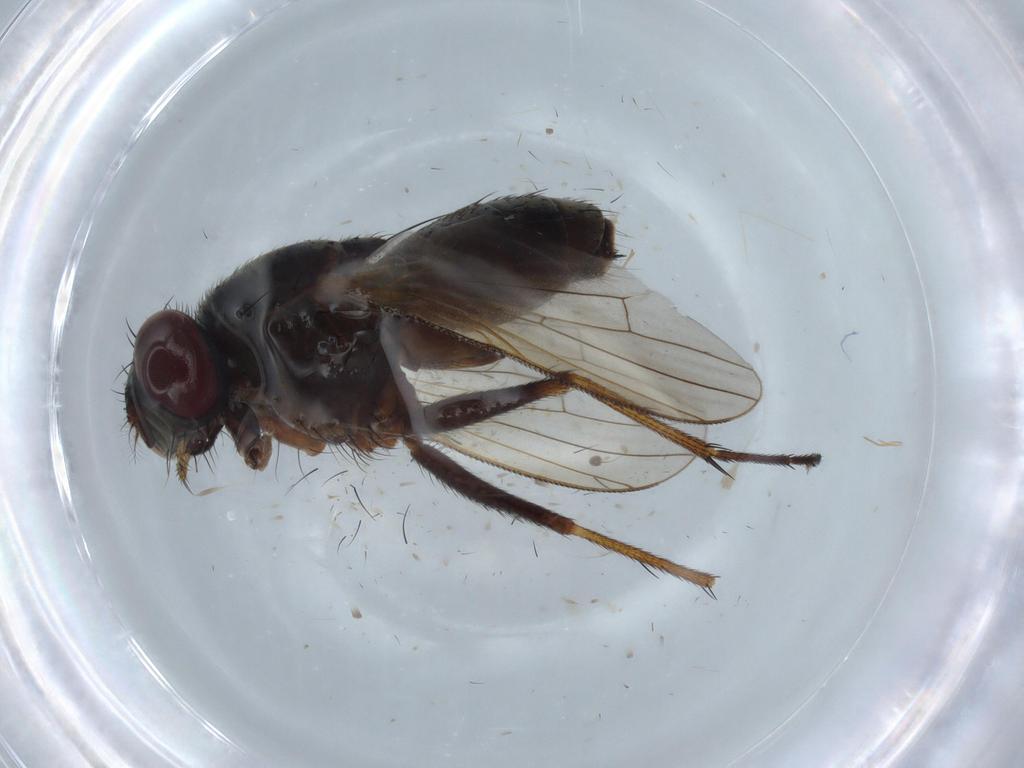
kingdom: Animalia
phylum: Arthropoda
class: Insecta
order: Diptera
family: Muscidae
